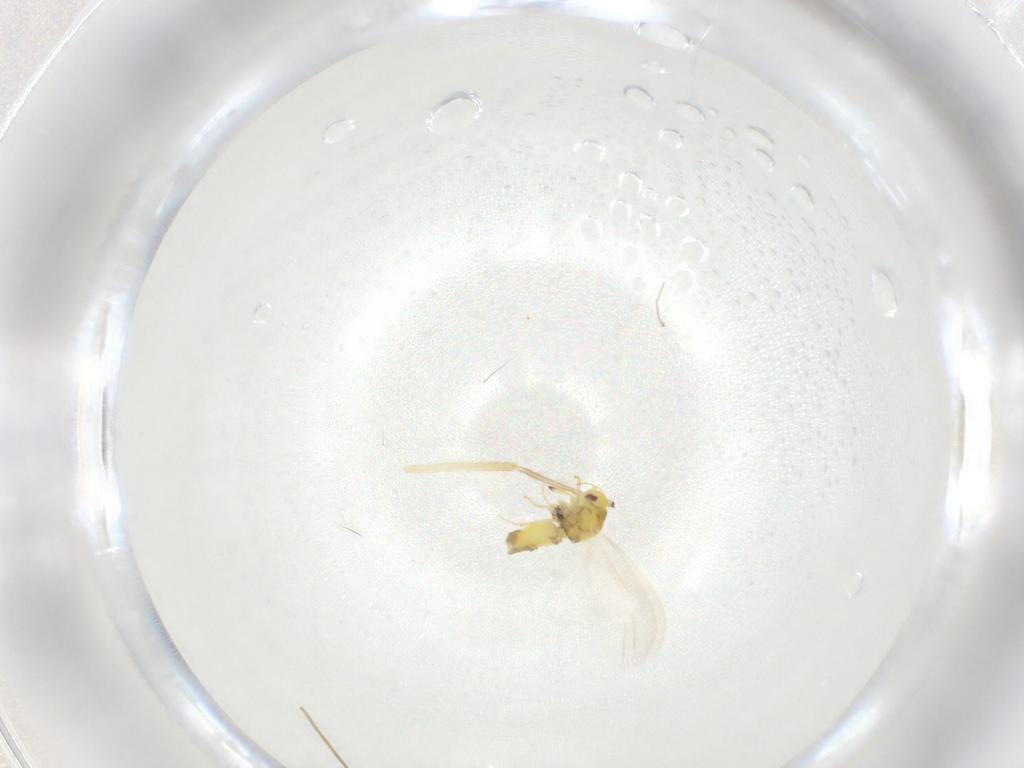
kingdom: Animalia
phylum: Arthropoda
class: Insecta
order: Hemiptera
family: Aleyrodidae
